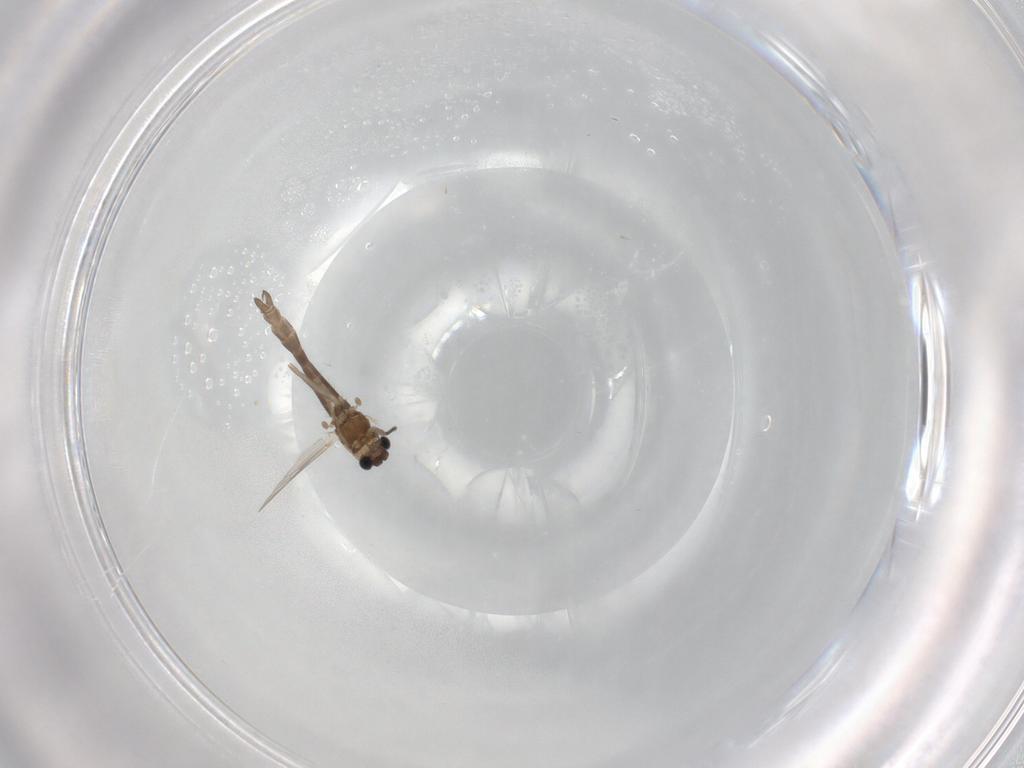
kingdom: Animalia
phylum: Arthropoda
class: Insecta
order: Diptera
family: Chironomidae
